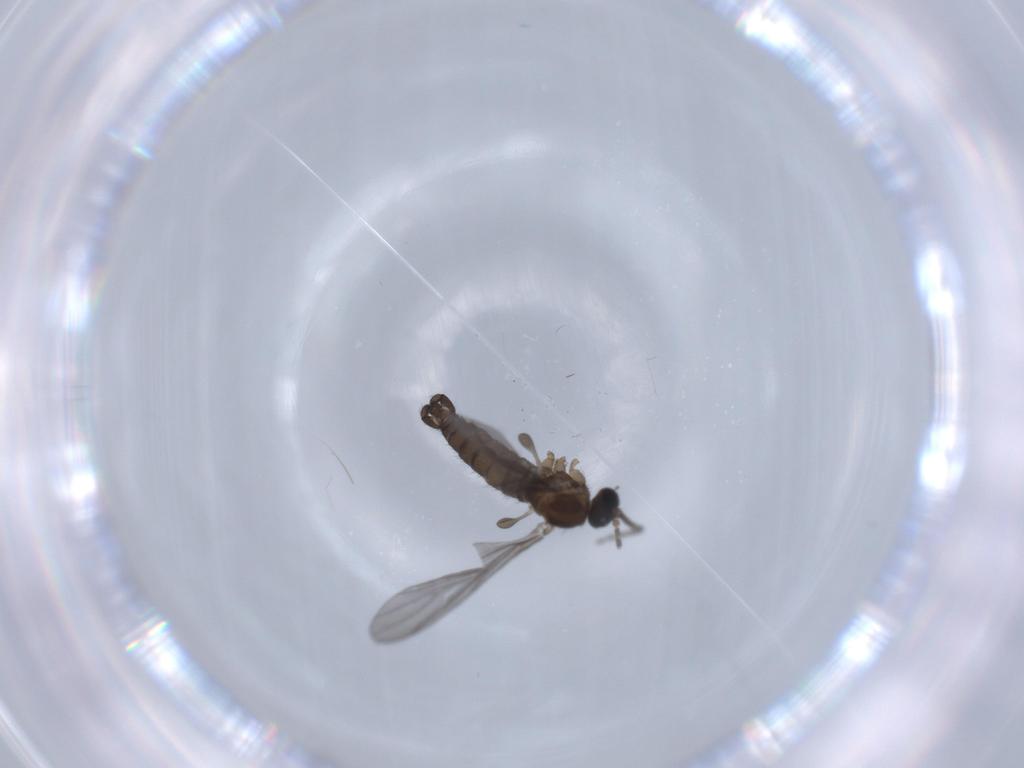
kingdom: Animalia
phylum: Arthropoda
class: Insecta
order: Diptera
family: Sciaridae
